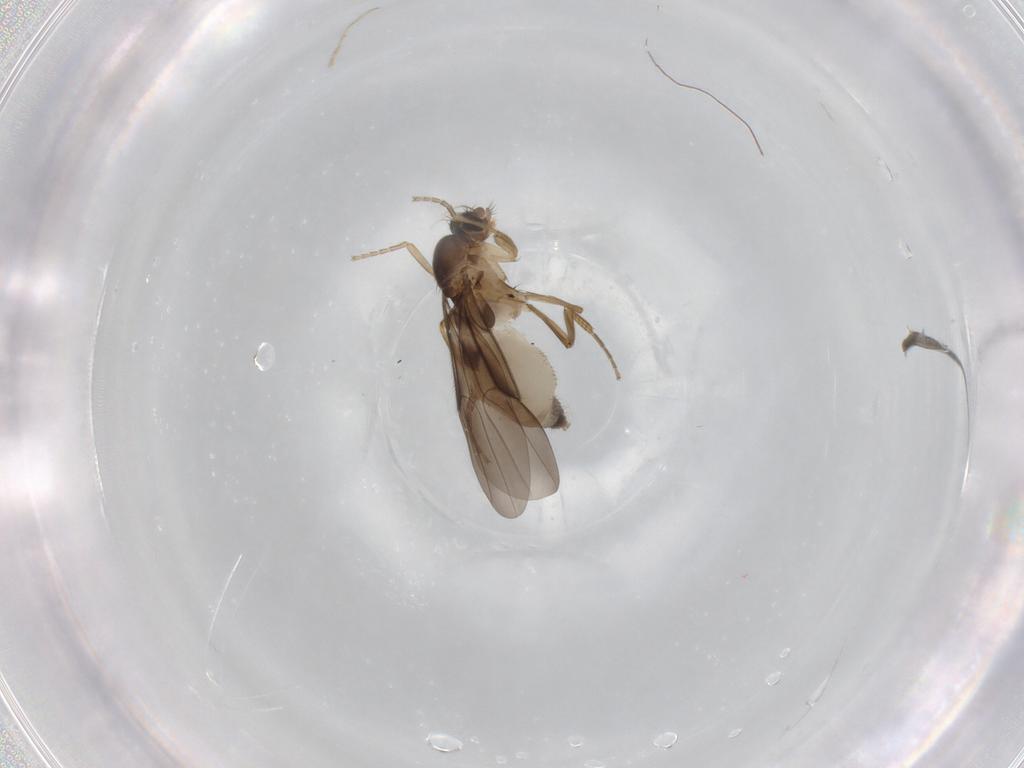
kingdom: Animalia
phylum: Arthropoda
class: Insecta
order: Diptera
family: Phoridae
